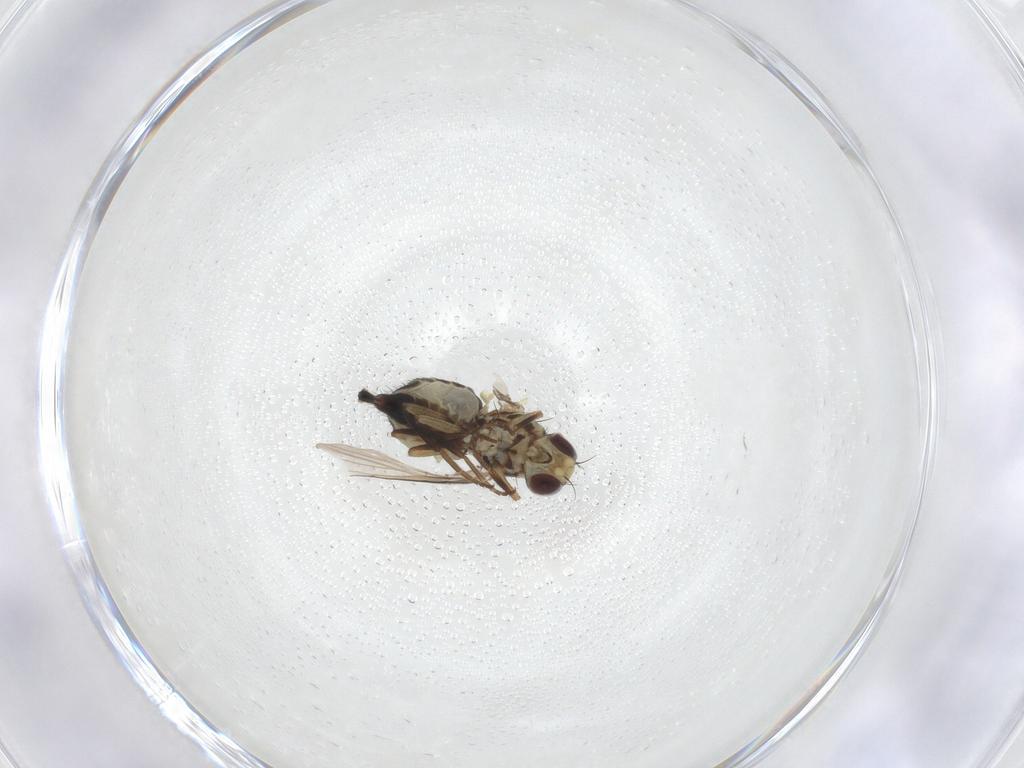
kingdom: Animalia
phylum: Arthropoda
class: Insecta
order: Diptera
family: Agromyzidae
